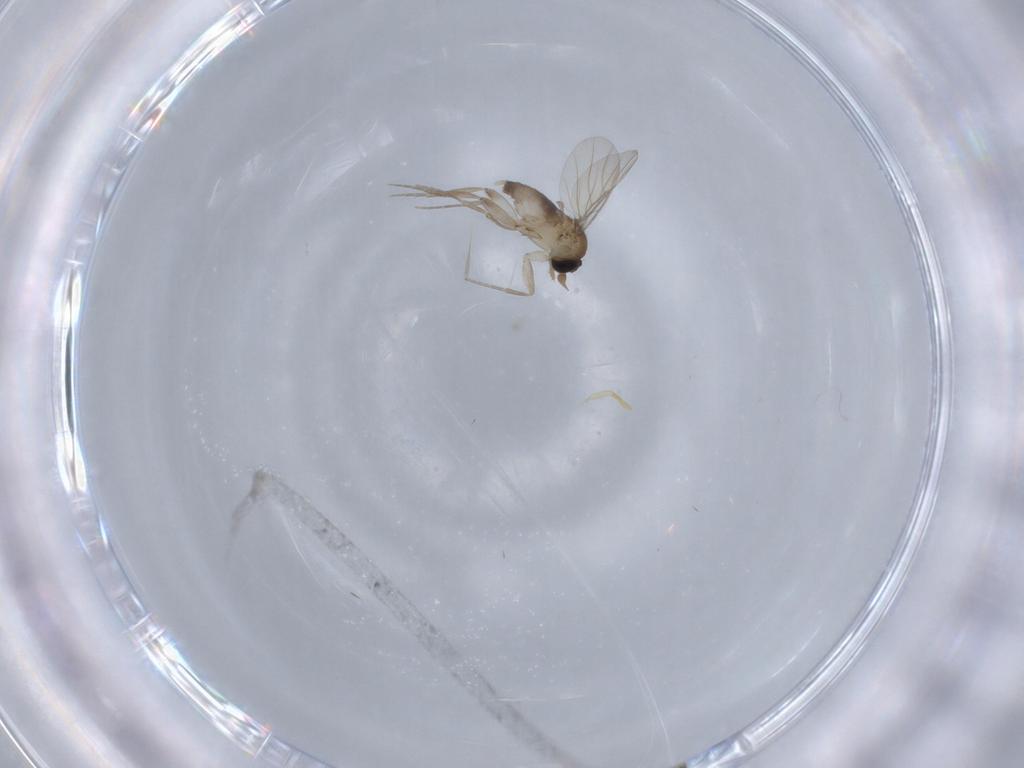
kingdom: Animalia
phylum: Arthropoda
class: Insecta
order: Diptera
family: Phoridae
